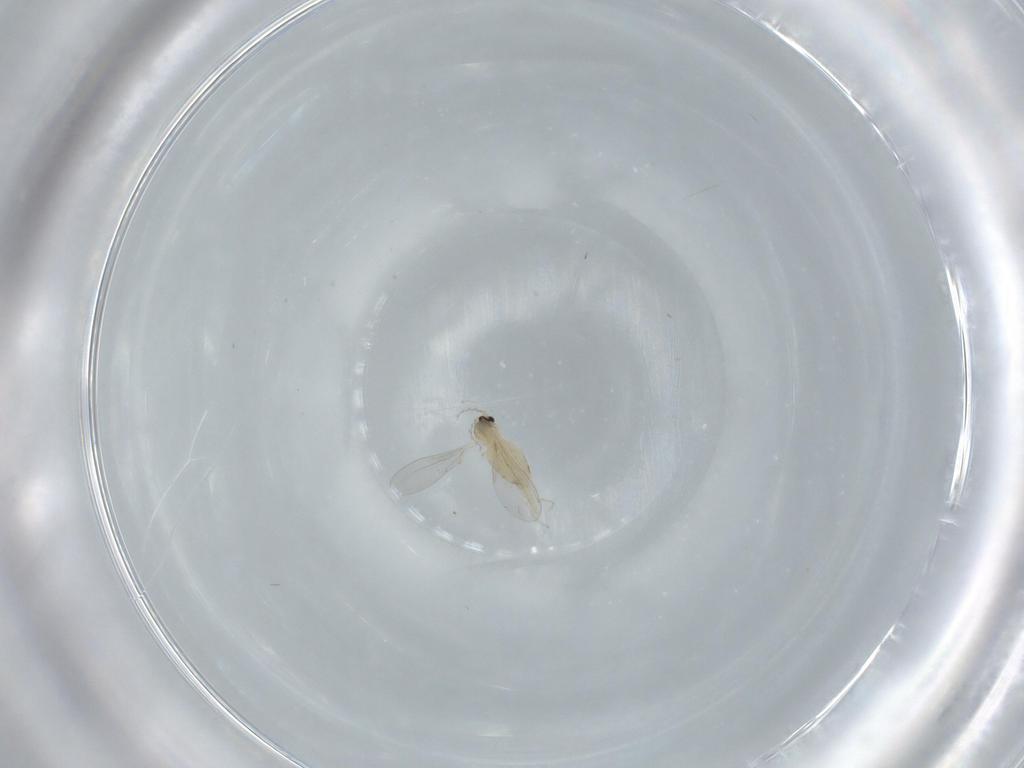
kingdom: Animalia
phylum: Arthropoda
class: Insecta
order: Diptera
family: Cecidomyiidae
